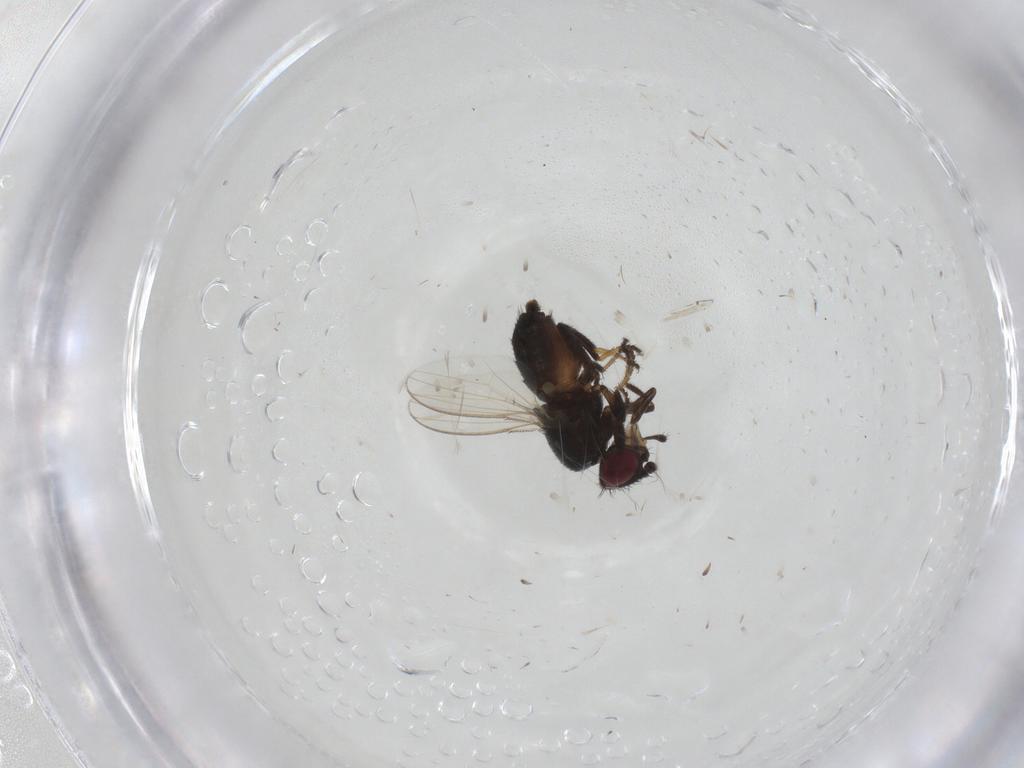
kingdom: Animalia
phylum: Arthropoda
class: Insecta
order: Diptera
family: Milichiidae
